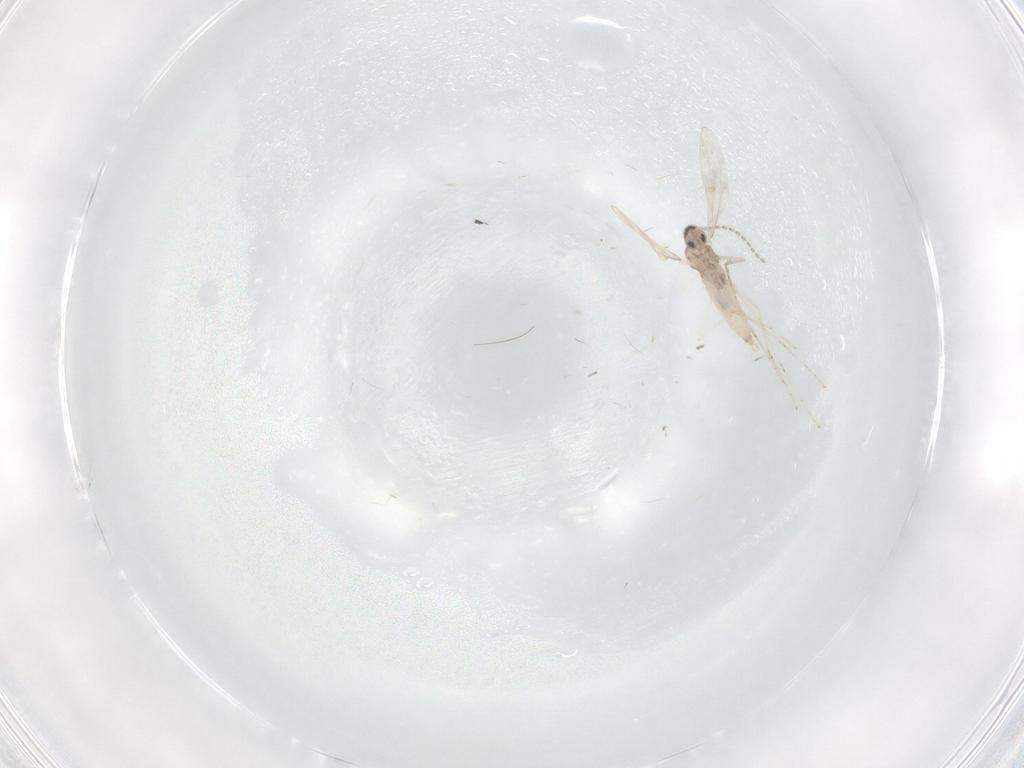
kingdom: Animalia
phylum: Arthropoda
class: Insecta
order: Diptera
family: Cecidomyiidae
